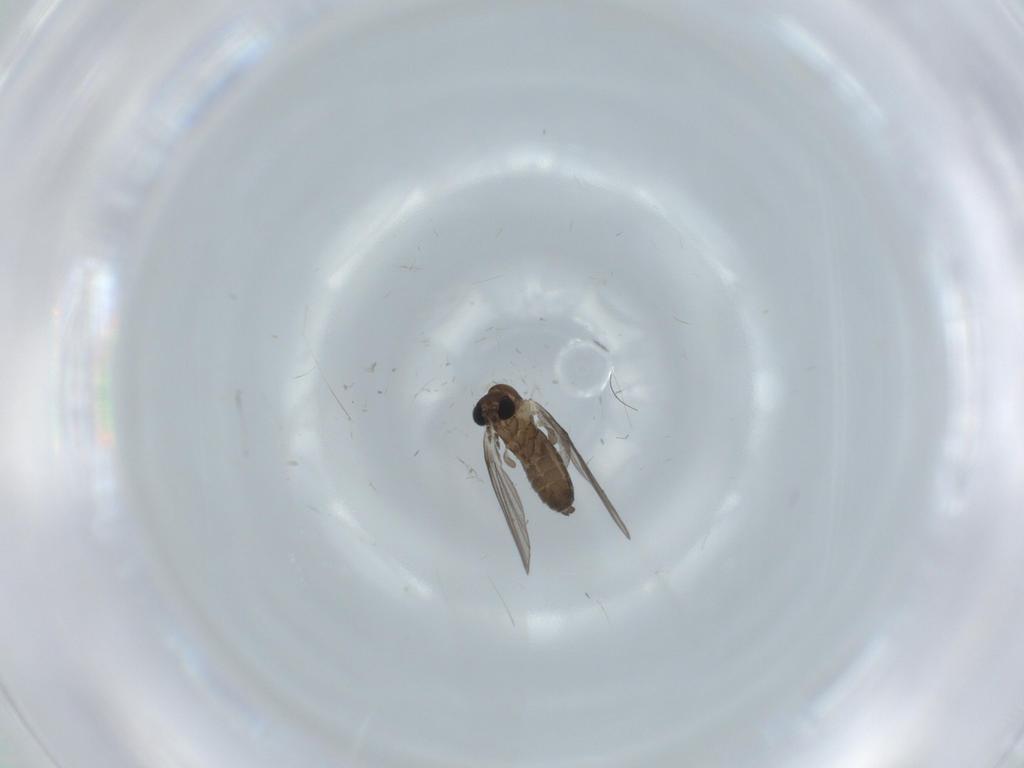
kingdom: Animalia
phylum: Arthropoda
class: Insecta
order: Diptera
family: Psychodidae
